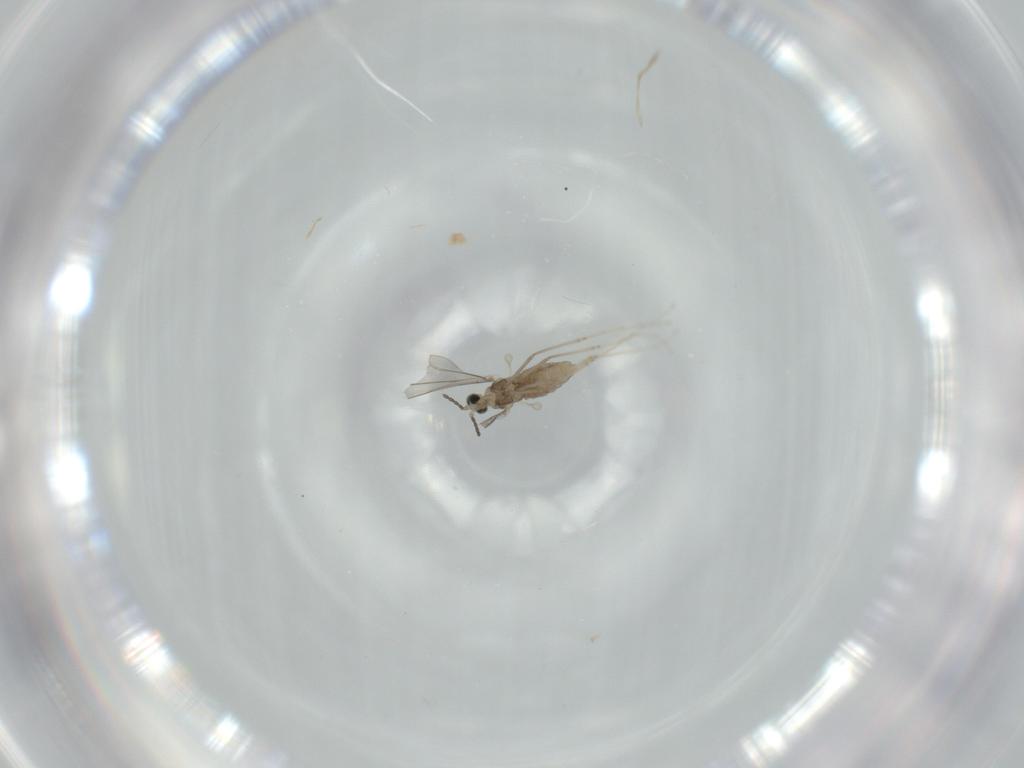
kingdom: Animalia
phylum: Arthropoda
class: Insecta
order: Diptera
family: Cecidomyiidae
